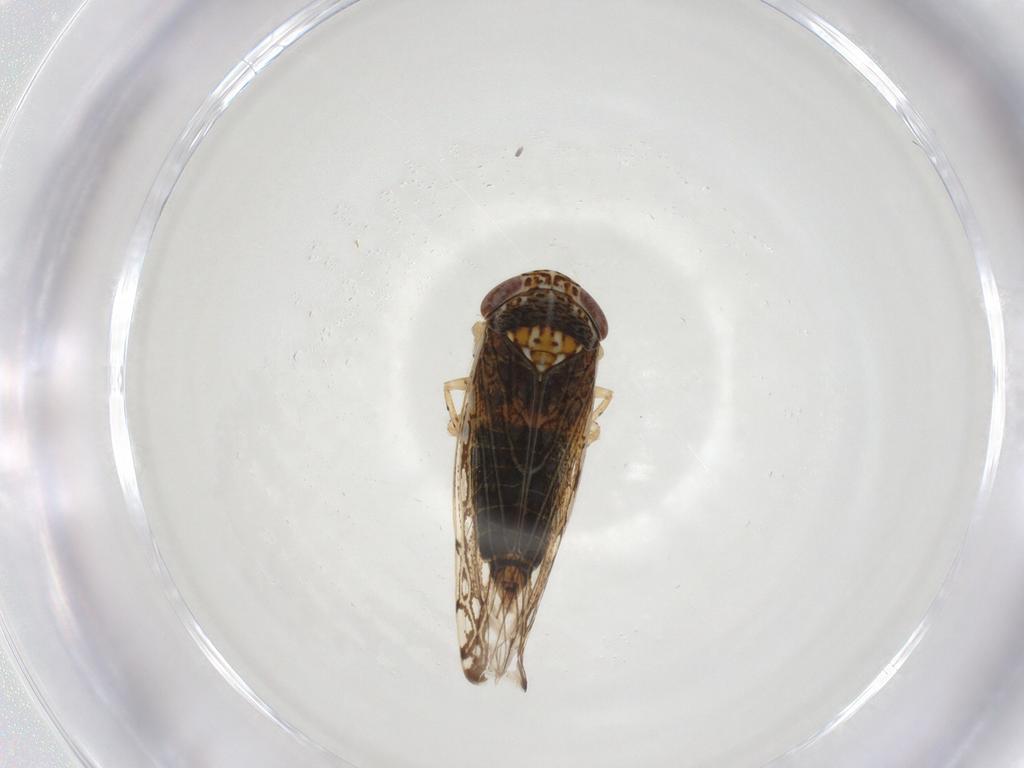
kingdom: Animalia
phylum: Arthropoda
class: Insecta
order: Hemiptera
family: Cicadellidae
